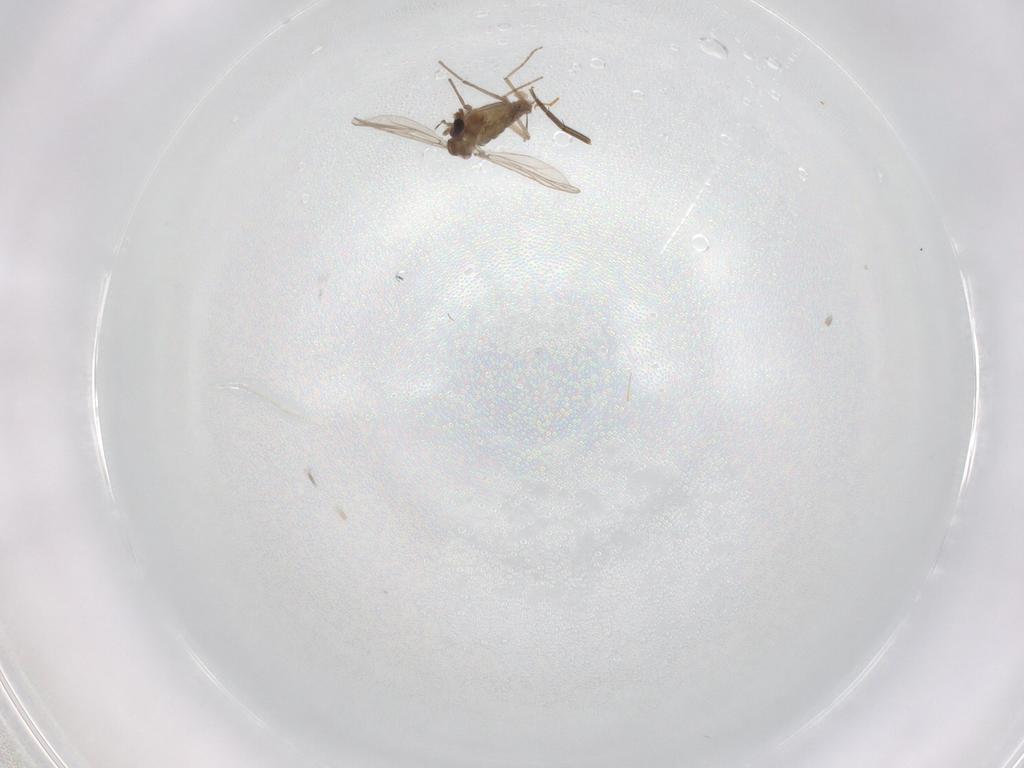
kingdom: Animalia
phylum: Arthropoda
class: Insecta
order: Diptera
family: Chironomidae
